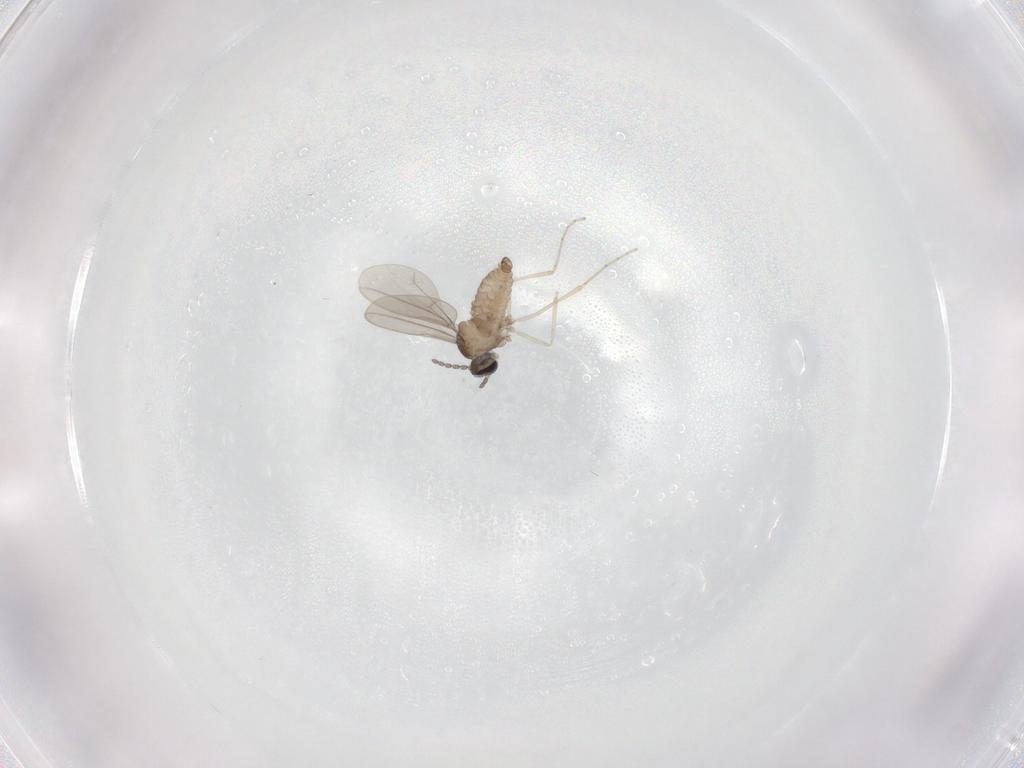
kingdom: Animalia
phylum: Arthropoda
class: Insecta
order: Diptera
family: Cecidomyiidae
